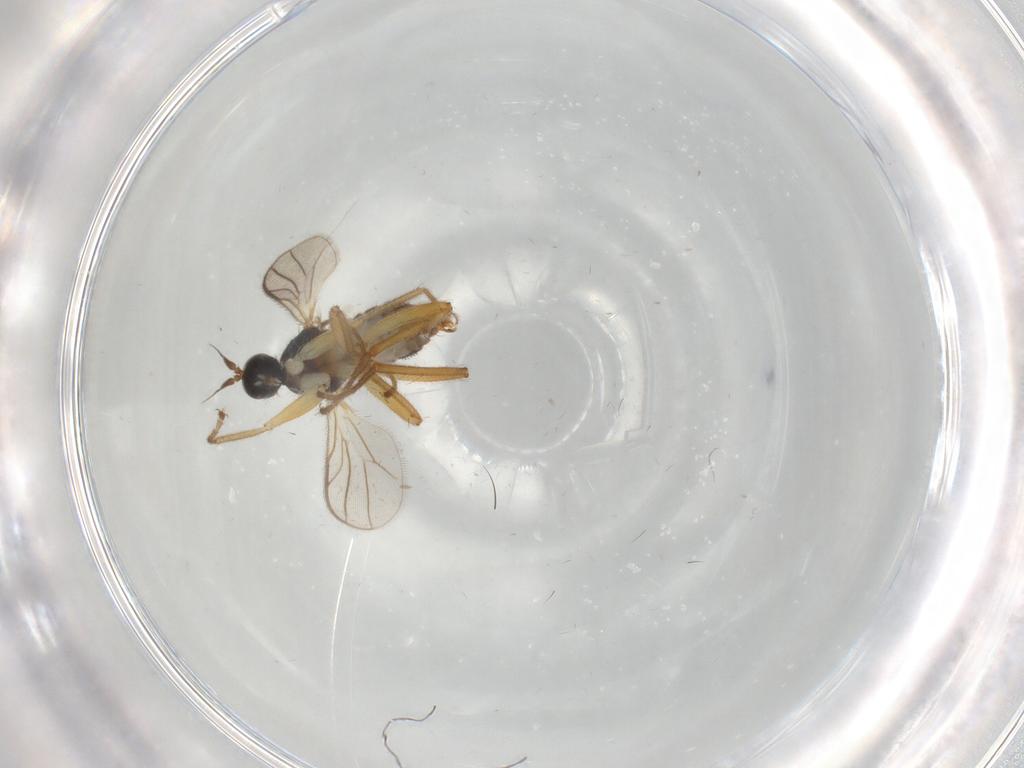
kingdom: Animalia
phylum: Arthropoda
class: Insecta
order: Diptera
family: Hybotidae
